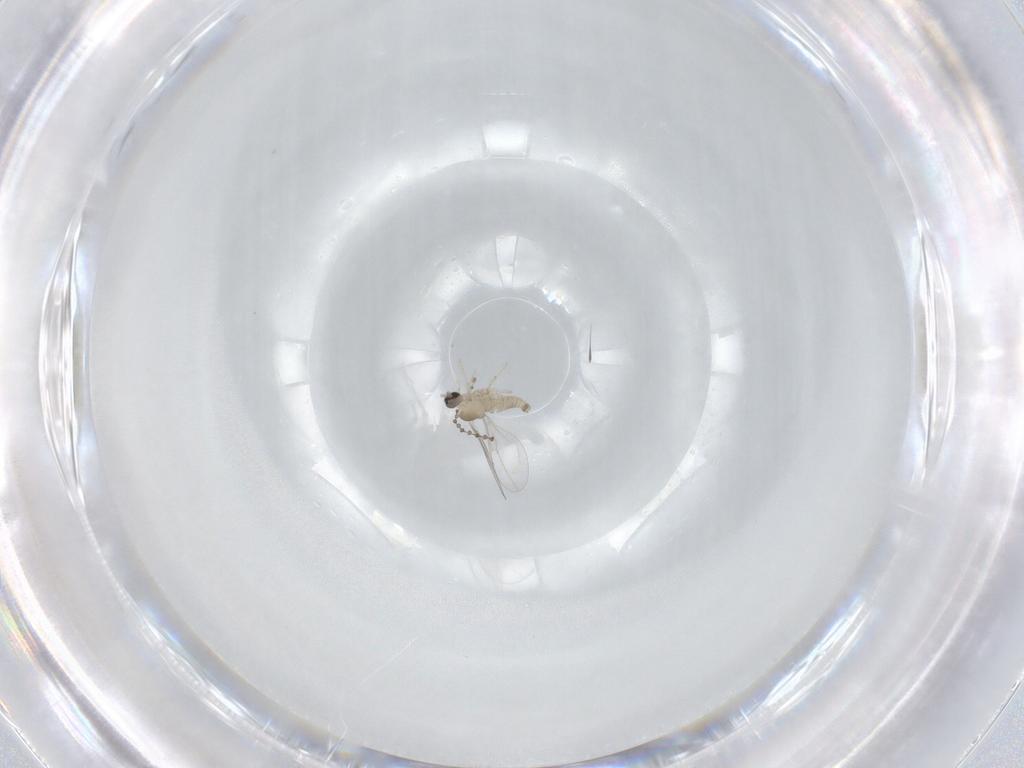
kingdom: Animalia
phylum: Arthropoda
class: Insecta
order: Diptera
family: Cecidomyiidae
